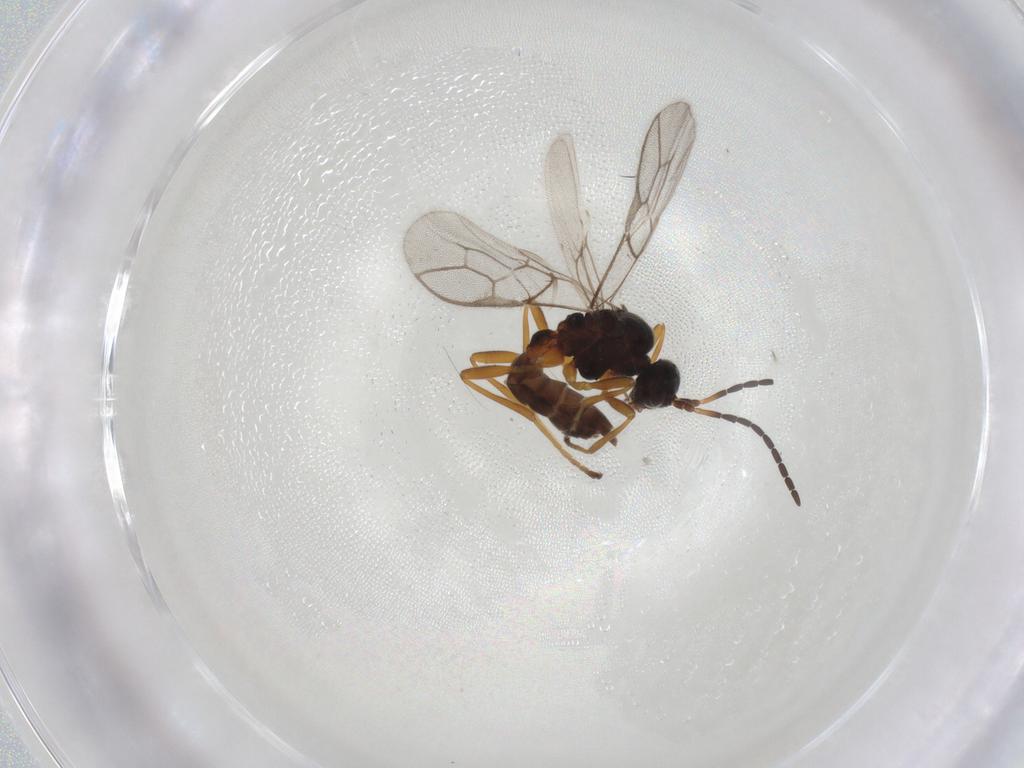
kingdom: Animalia
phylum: Arthropoda
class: Insecta
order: Hymenoptera
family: Braconidae
